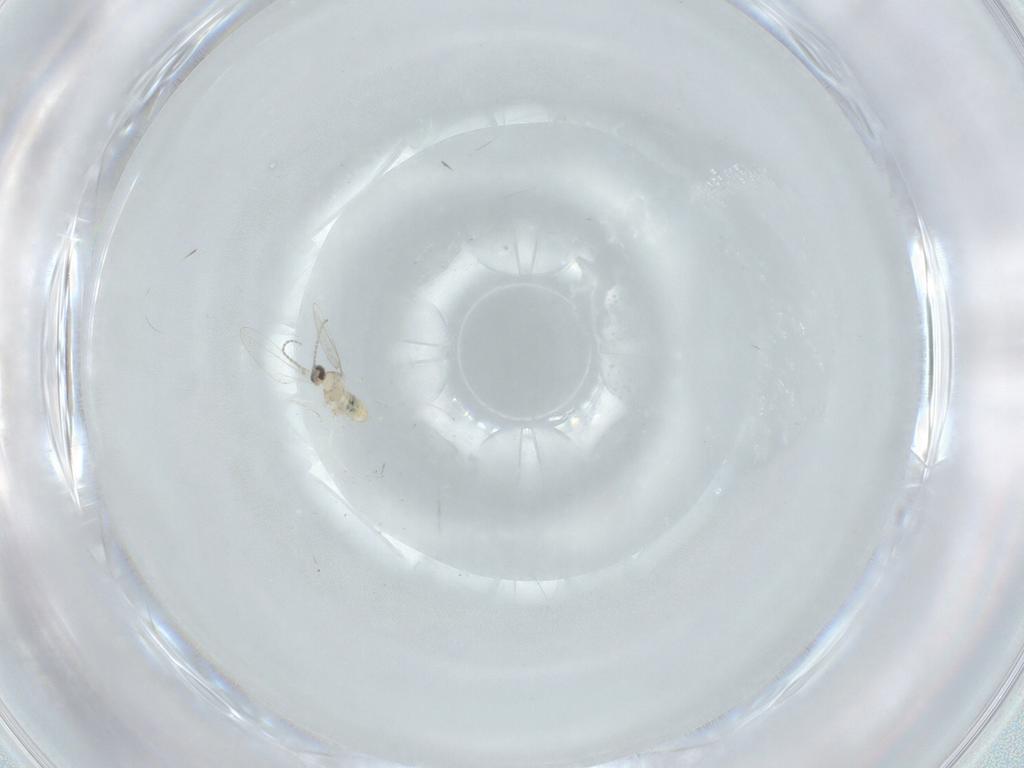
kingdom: Animalia
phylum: Arthropoda
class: Insecta
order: Diptera
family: Cecidomyiidae
